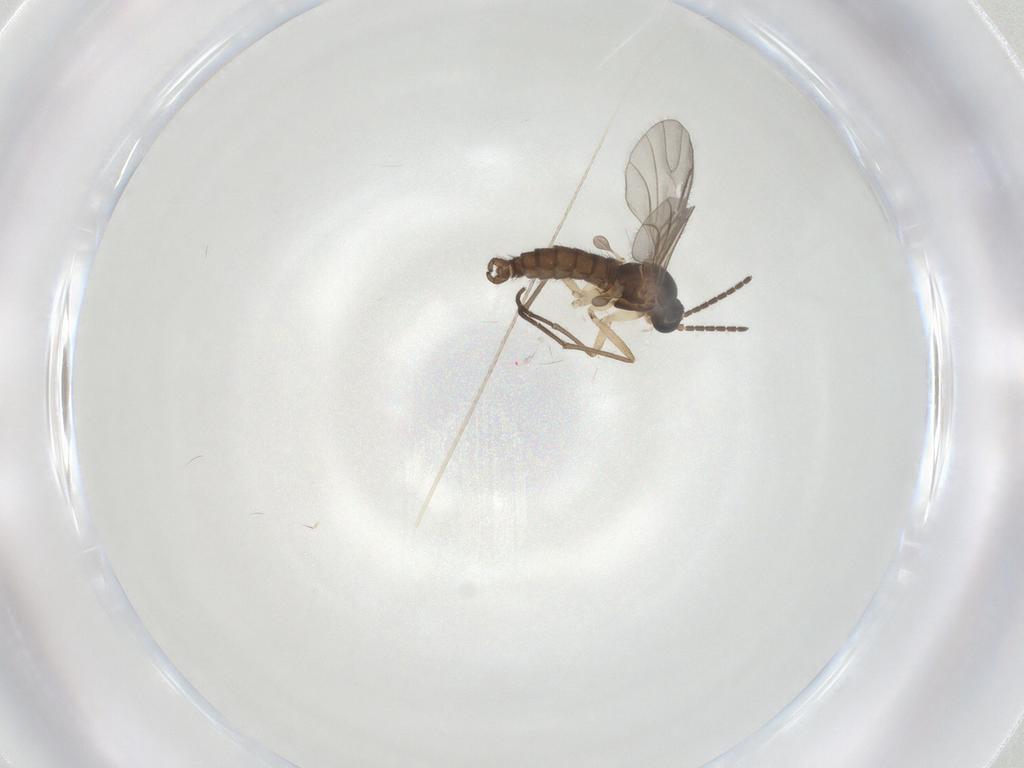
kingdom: Animalia
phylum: Arthropoda
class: Insecta
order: Diptera
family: Sciaridae
